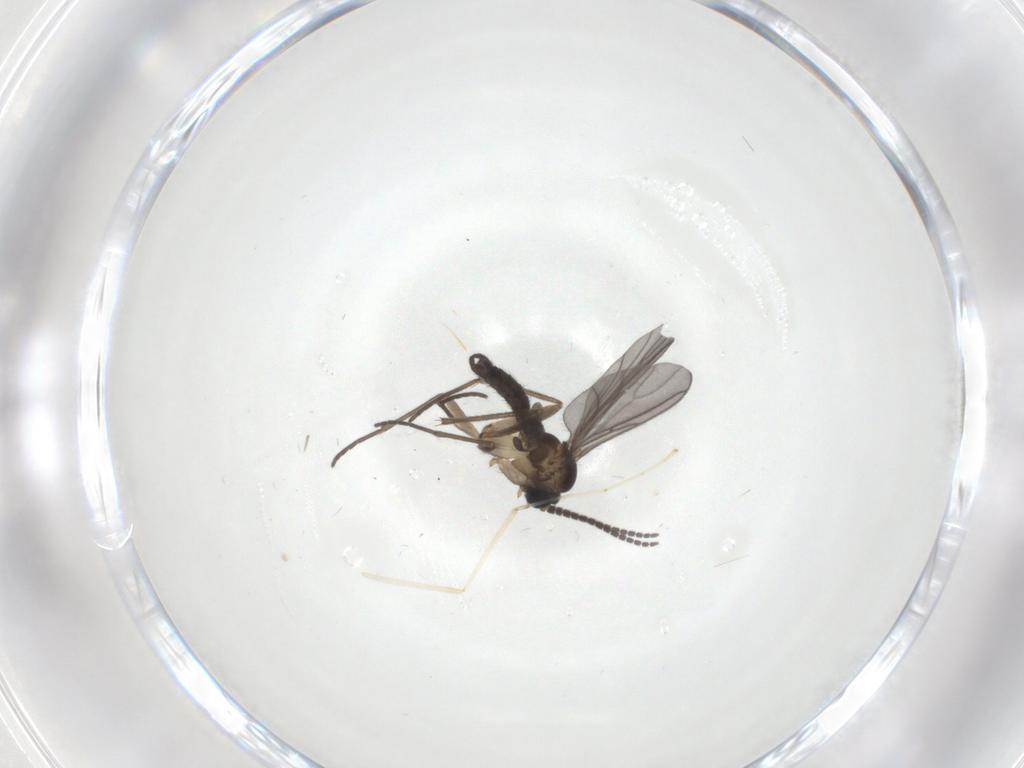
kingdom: Animalia
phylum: Arthropoda
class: Insecta
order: Diptera
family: Sciaridae
